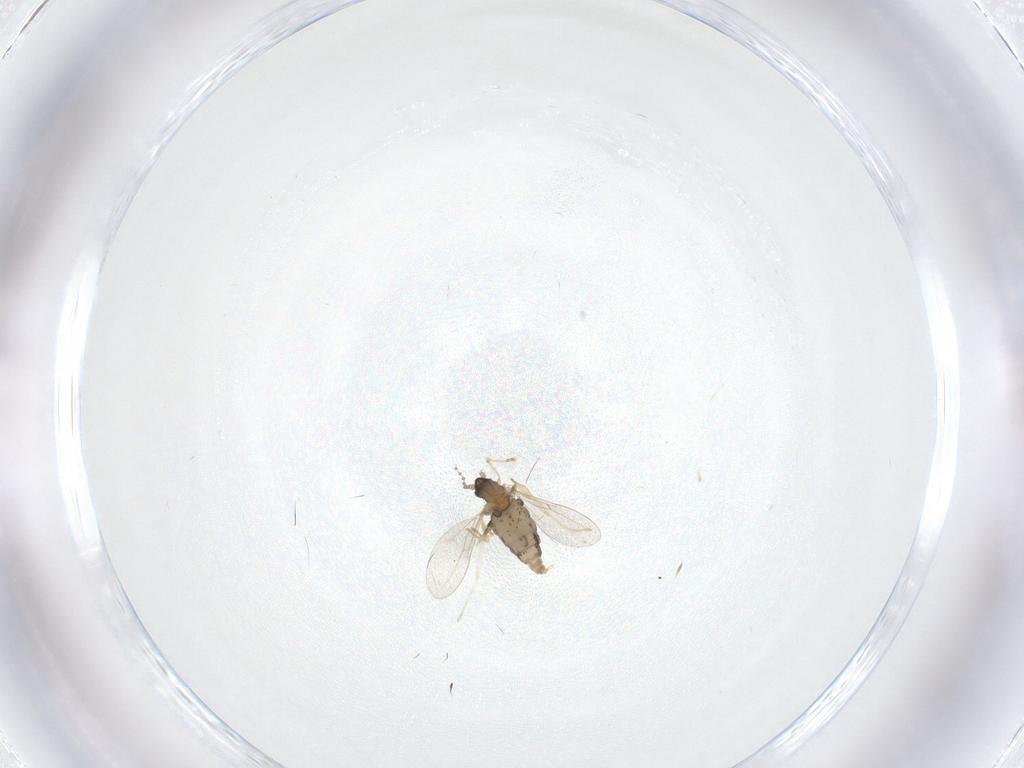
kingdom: Animalia
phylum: Arthropoda
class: Insecta
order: Diptera
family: Cecidomyiidae
